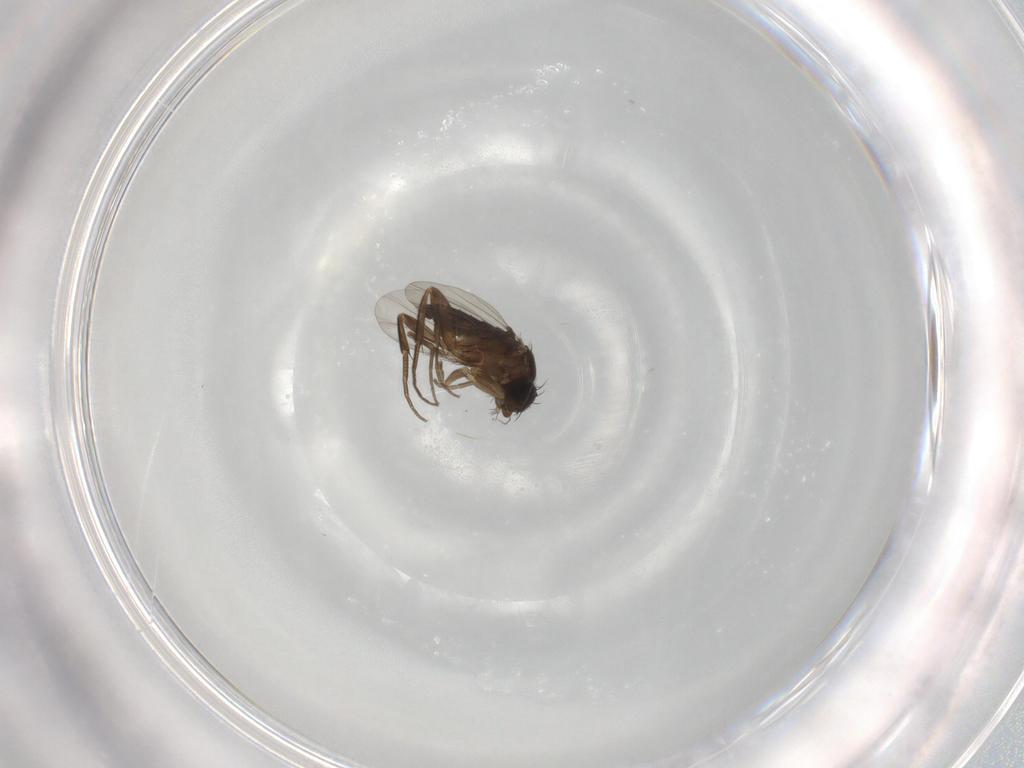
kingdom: Animalia
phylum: Arthropoda
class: Insecta
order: Diptera
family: Phoridae
